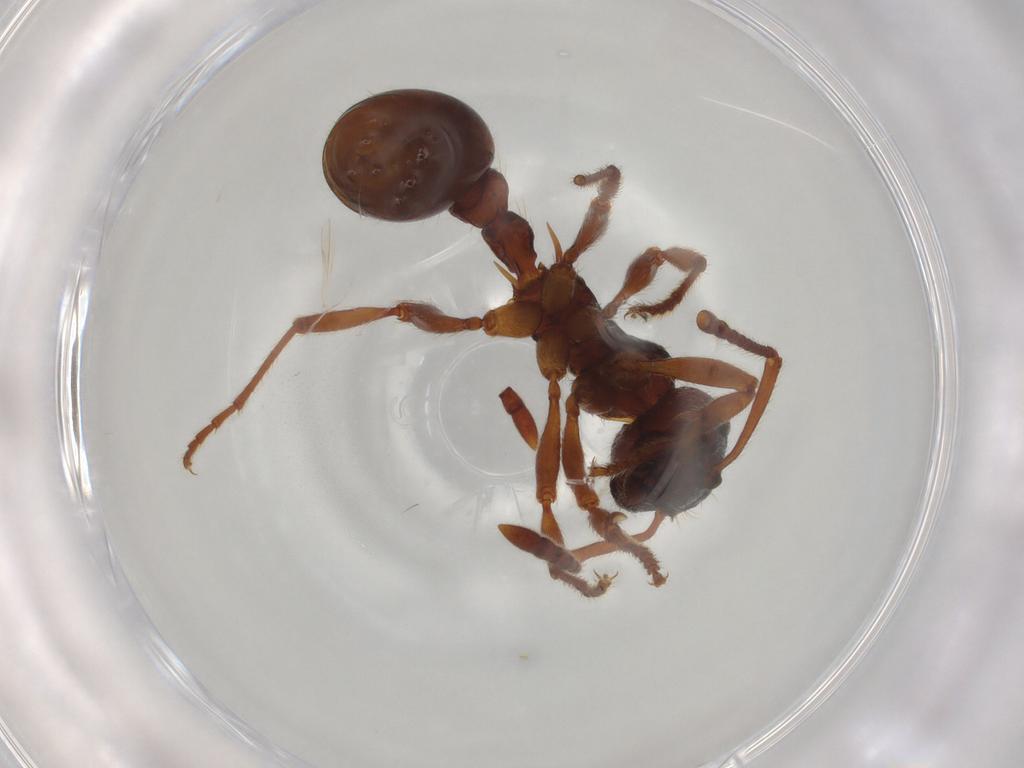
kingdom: Animalia
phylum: Arthropoda
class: Insecta
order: Hymenoptera
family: Formicidae
